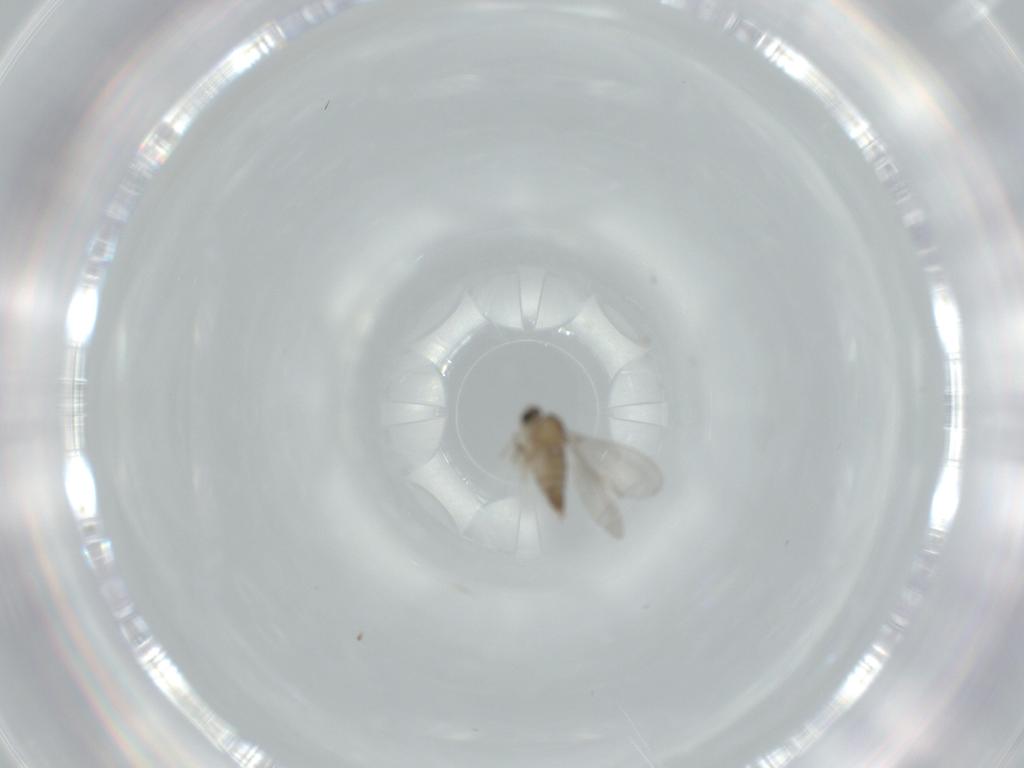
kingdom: Animalia
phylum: Arthropoda
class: Insecta
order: Diptera
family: Cecidomyiidae
